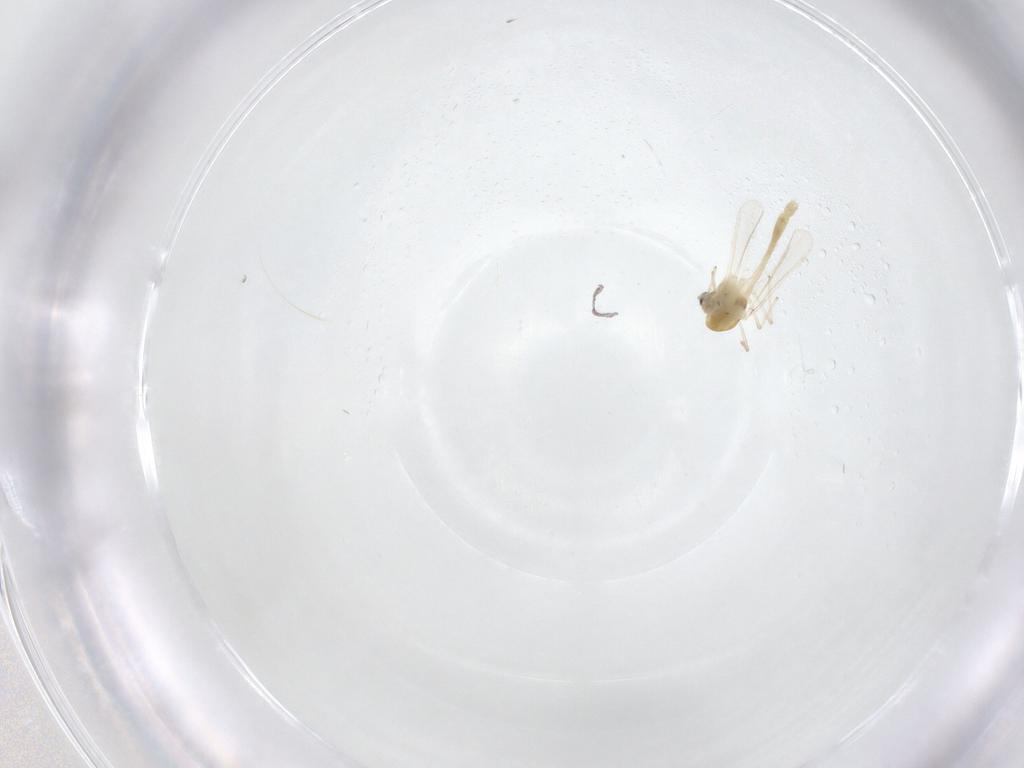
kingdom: Animalia
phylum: Arthropoda
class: Insecta
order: Diptera
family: Chironomidae
